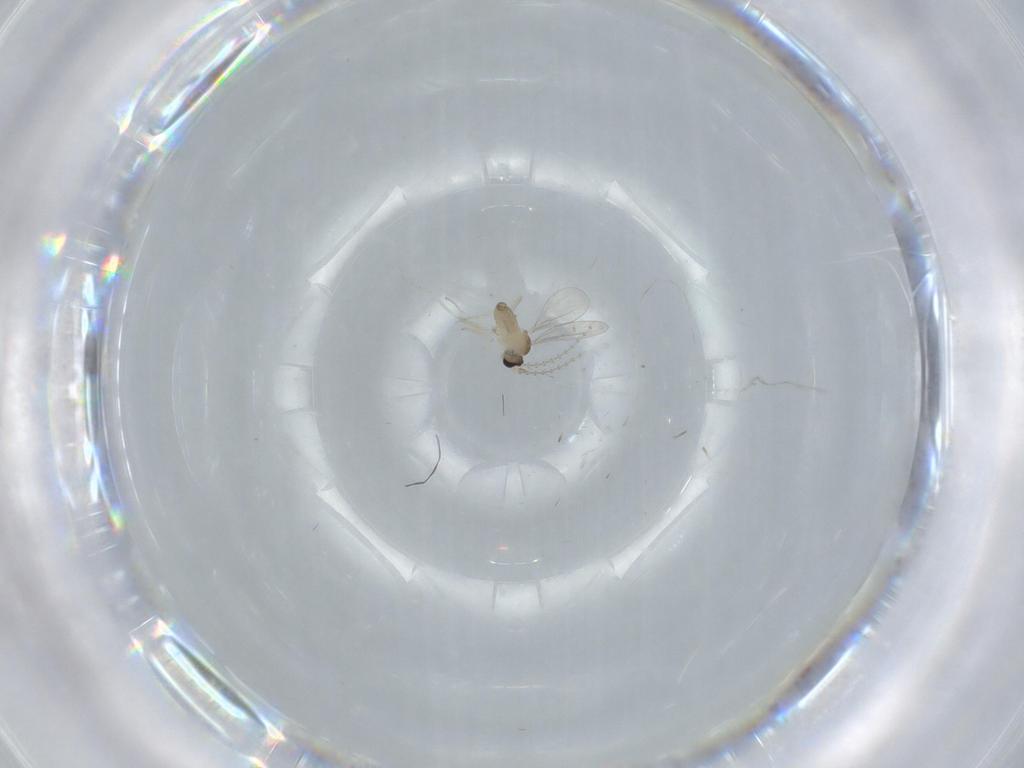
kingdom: Animalia
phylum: Arthropoda
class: Insecta
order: Diptera
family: Cecidomyiidae
